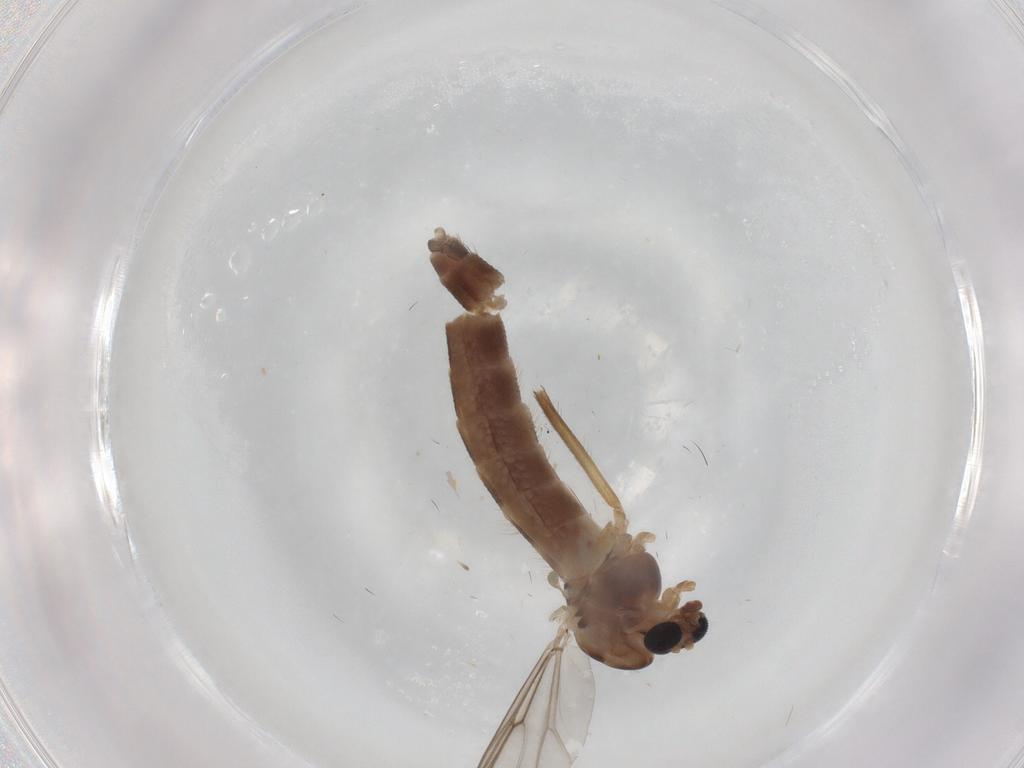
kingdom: Animalia
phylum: Arthropoda
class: Insecta
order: Diptera
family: Chironomidae
